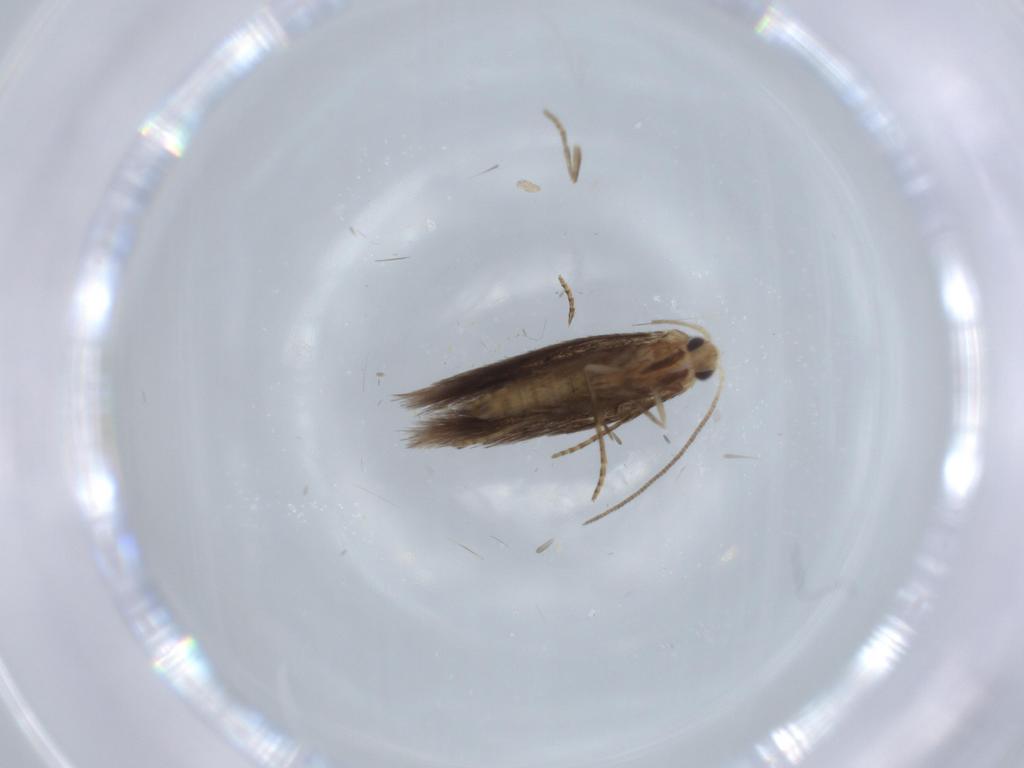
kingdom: Animalia
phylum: Arthropoda
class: Insecta
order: Lepidoptera
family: Bucculatricidae
